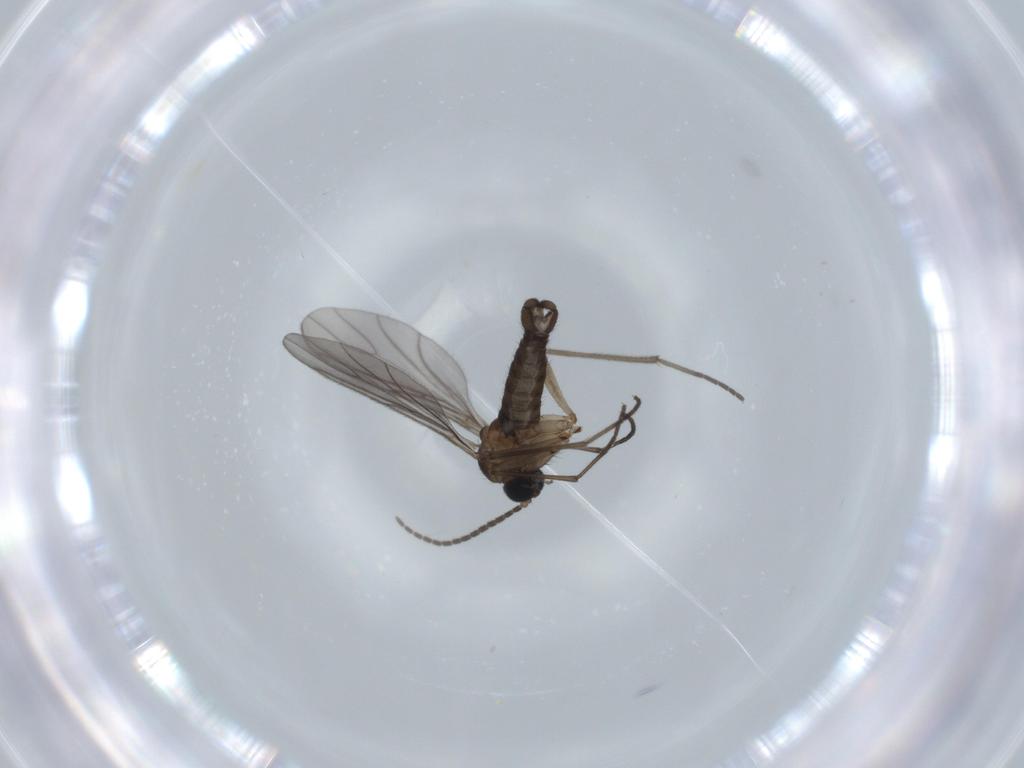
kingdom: Animalia
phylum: Arthropoda
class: Insecta
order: Diptera
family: Sciaridae
